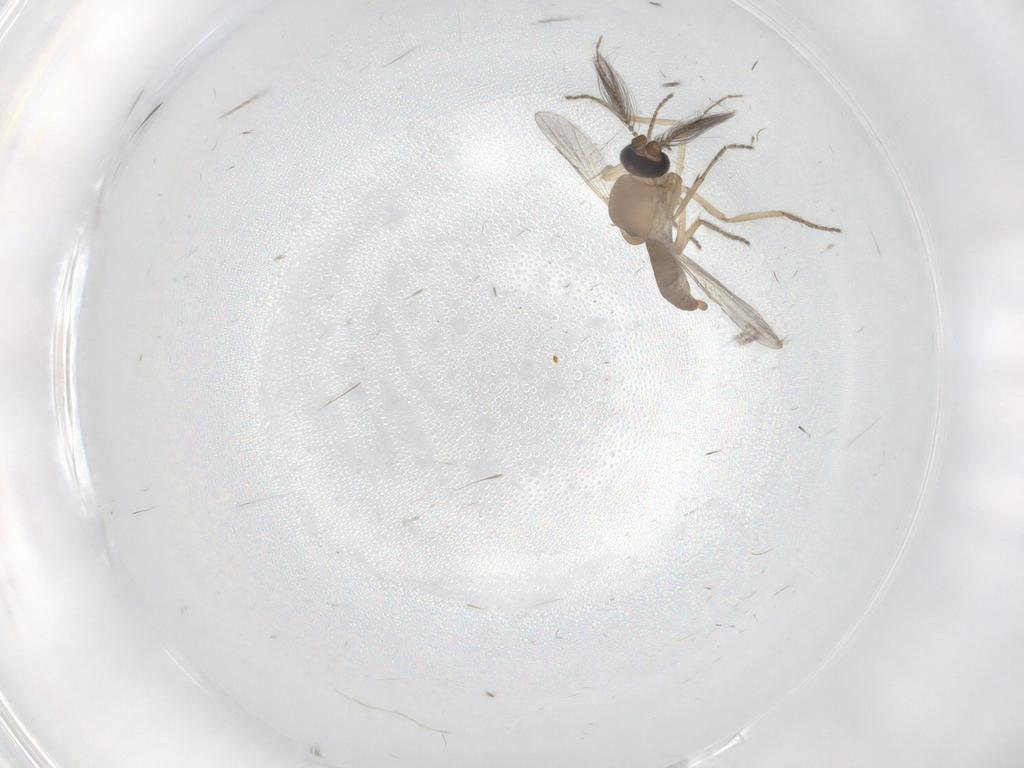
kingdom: Animalia
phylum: Arthropoda
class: Insecta
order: Diptera
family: Ceratopogonidae
